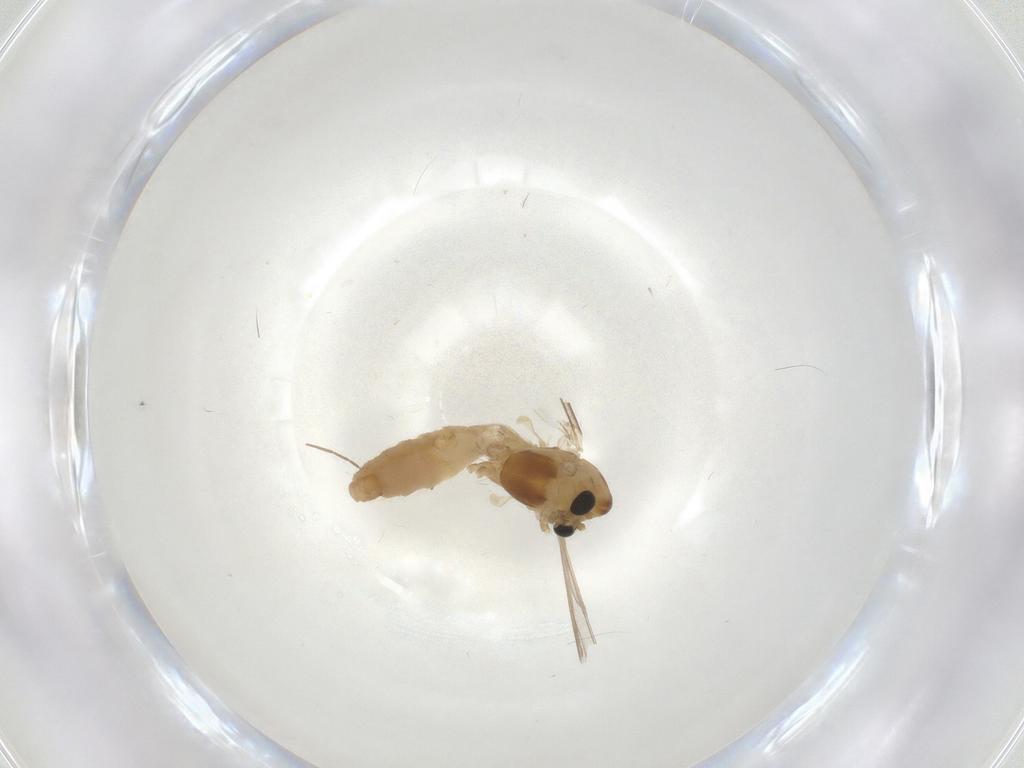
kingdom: Animalia
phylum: Arthropoda
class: Insecta
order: Diptera
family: Chironomidae
